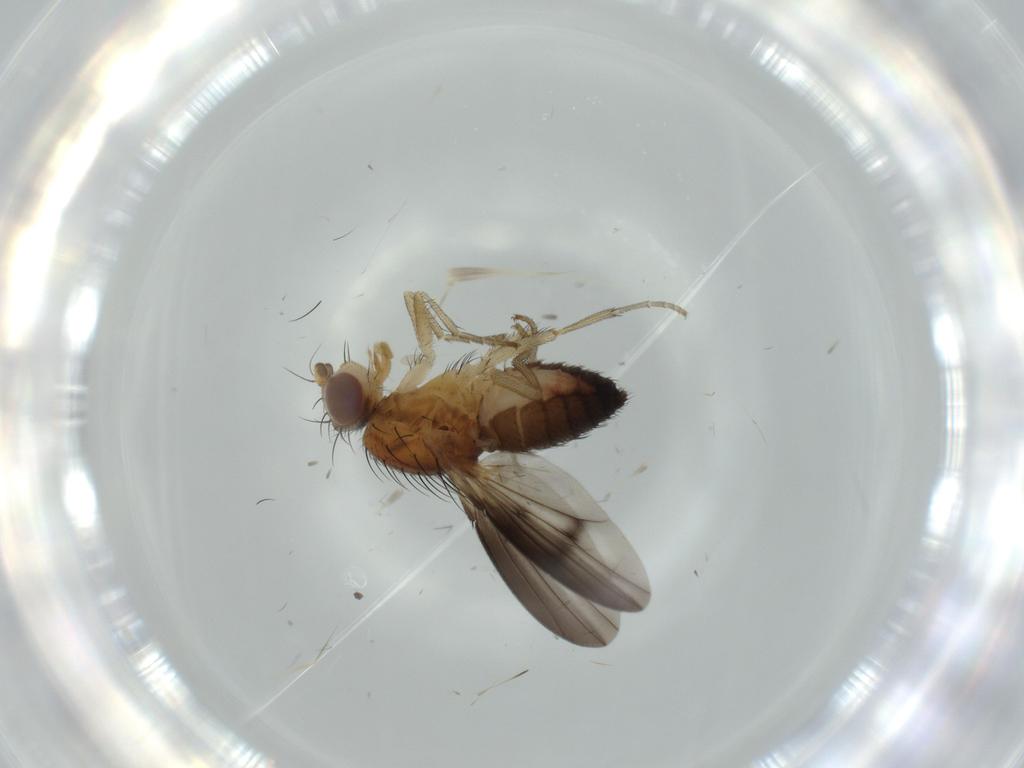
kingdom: Animalia
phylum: Arthropoda
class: Insecta
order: Diptera
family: Heleomyzidae
